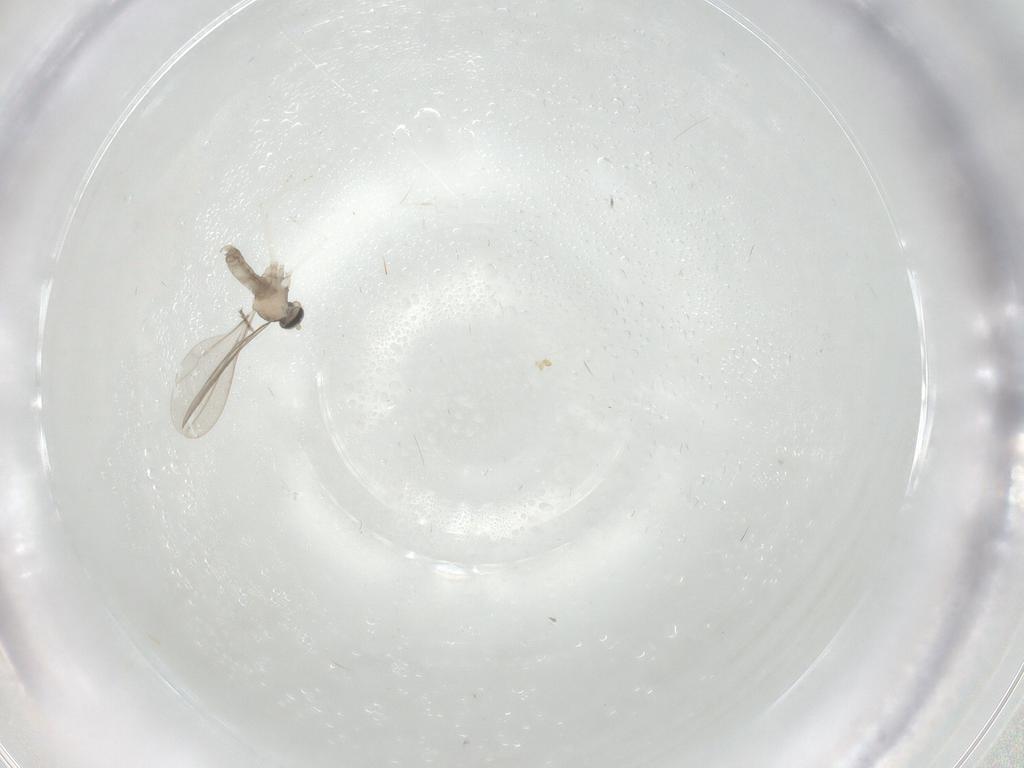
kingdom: Animalia
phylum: Arthropoda
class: Insecta
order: Diptera
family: Cecidomyiidae
